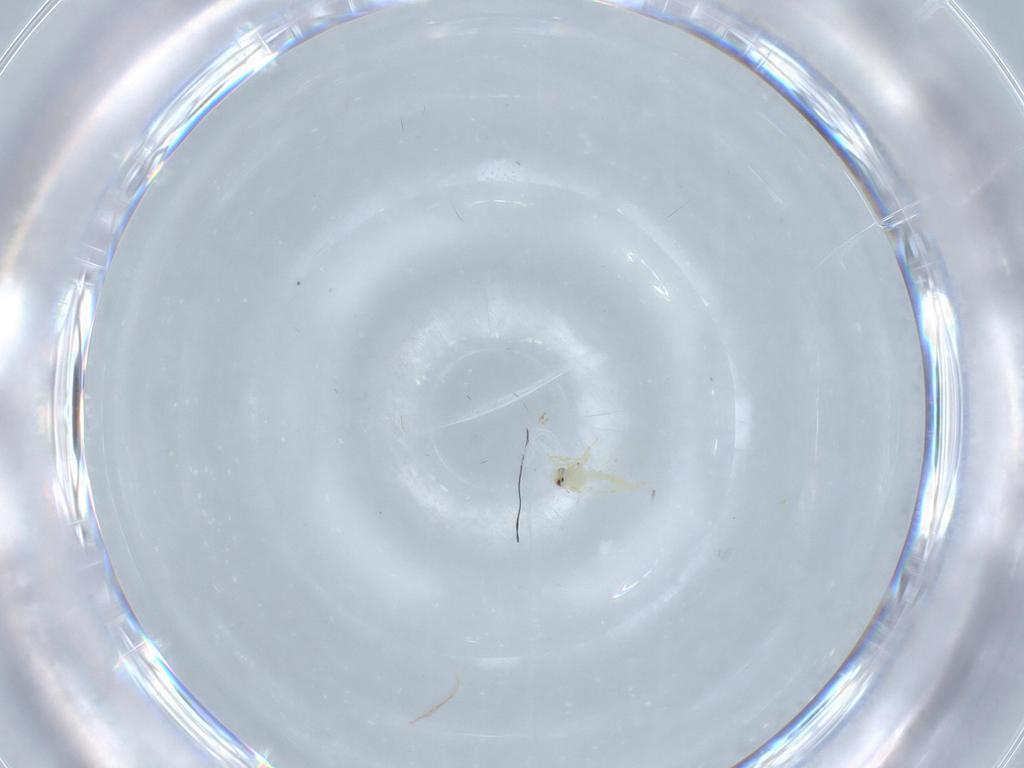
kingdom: Animalia
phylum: Arthropoda
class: Insecta
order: Hemiptera
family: Aleyrodidae
